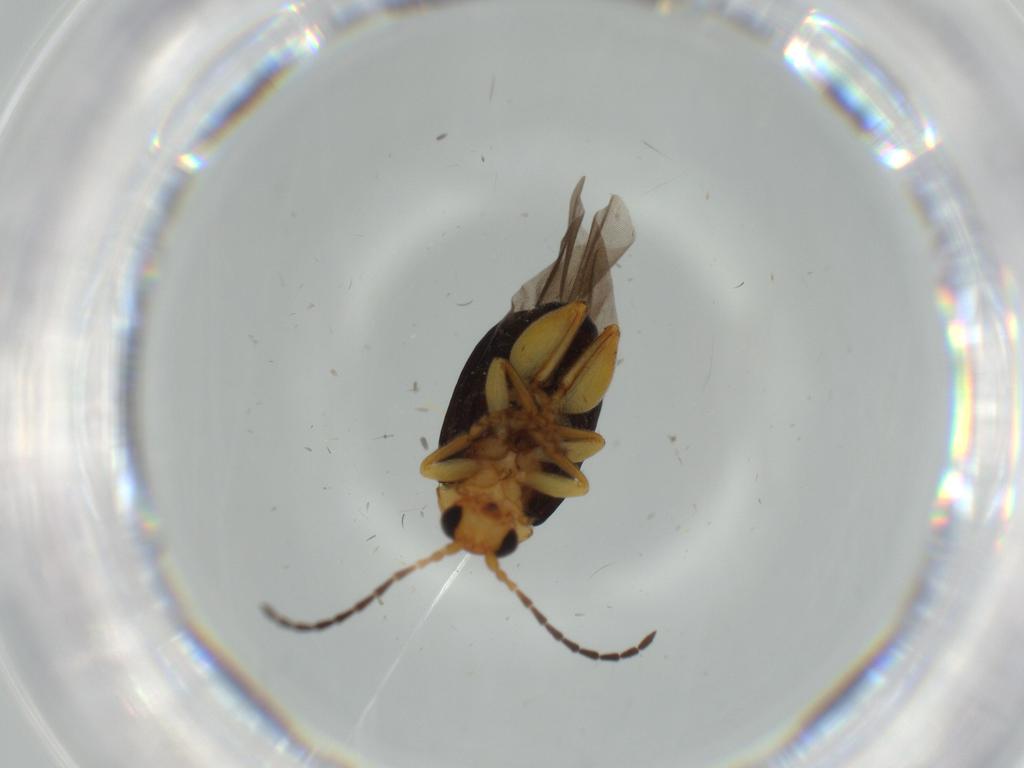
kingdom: Animalia
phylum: Arthropoda
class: Insecta
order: Coleoptera
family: Chrysomelidae
